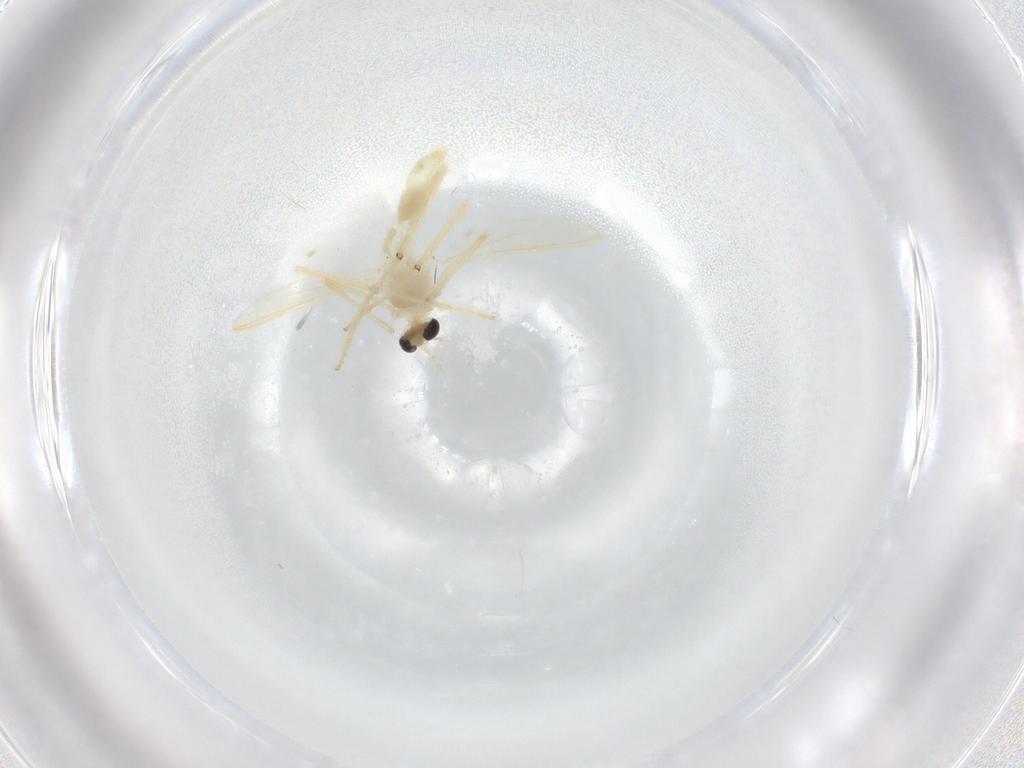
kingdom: Animalia
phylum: Arthropoda
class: Insecta
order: Diptera
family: Chironomidae
